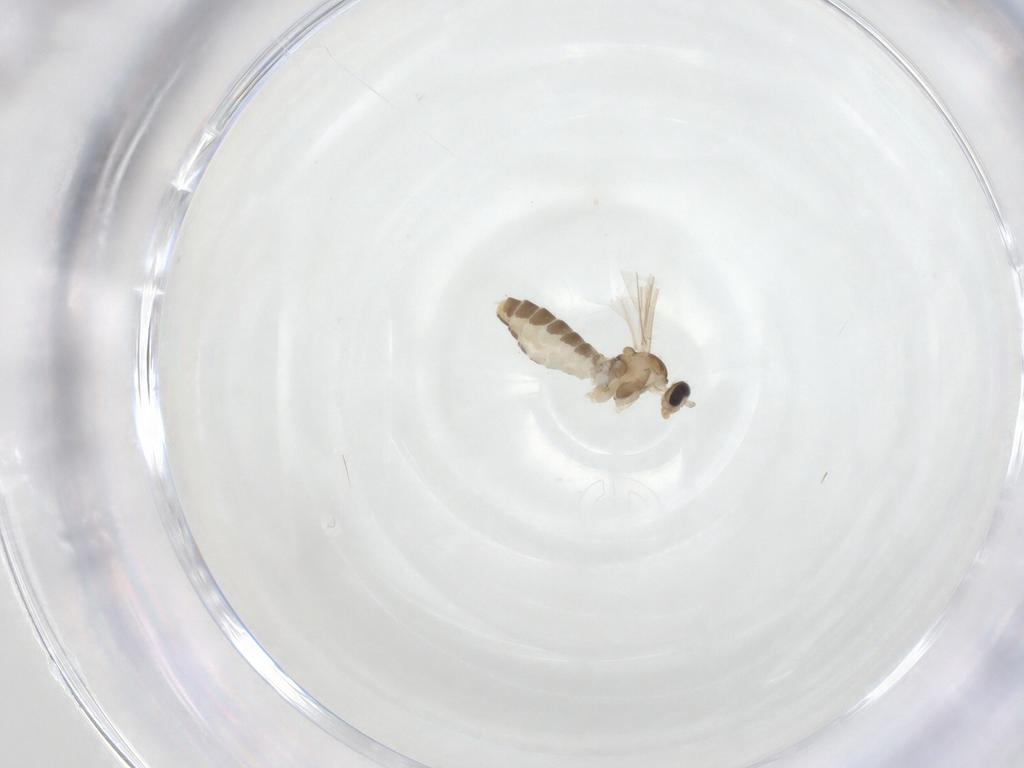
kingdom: Animalia
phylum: Arthropoda
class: Insecta
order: Diptera
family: Cecidomyiidae
